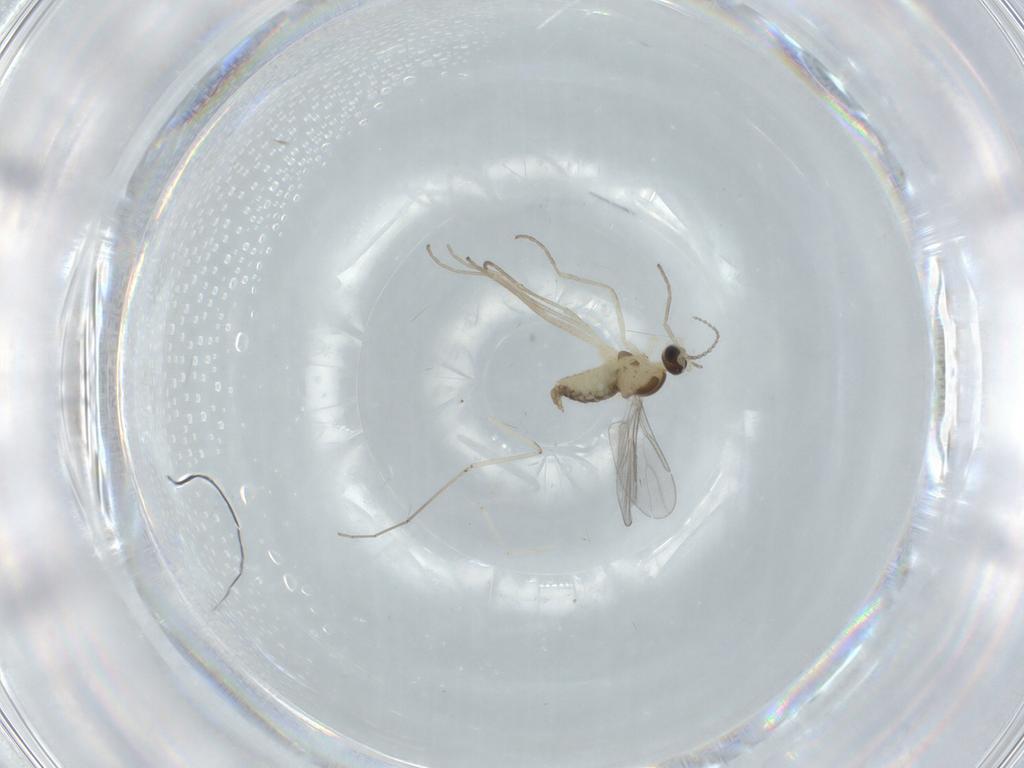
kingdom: Animalia
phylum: Arthropoda
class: Insecta
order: Diptera
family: Cecidomyiidae
